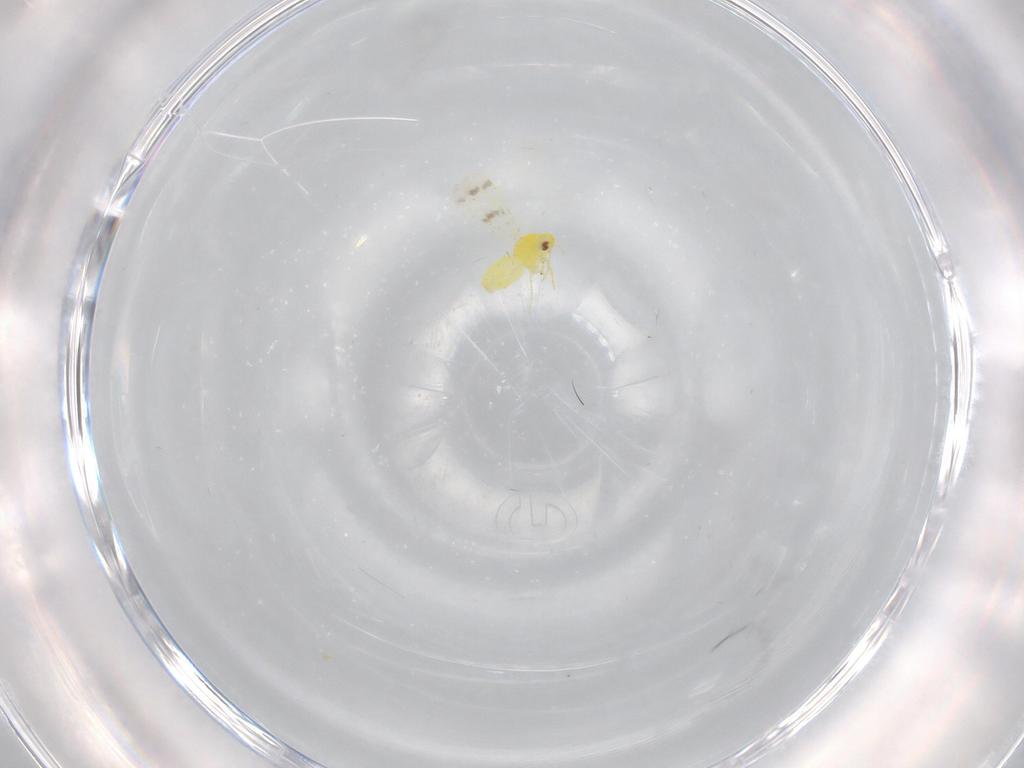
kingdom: Animalia
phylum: Arthropoda
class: Insecta
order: Hemiptera
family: Aleyrodidae
